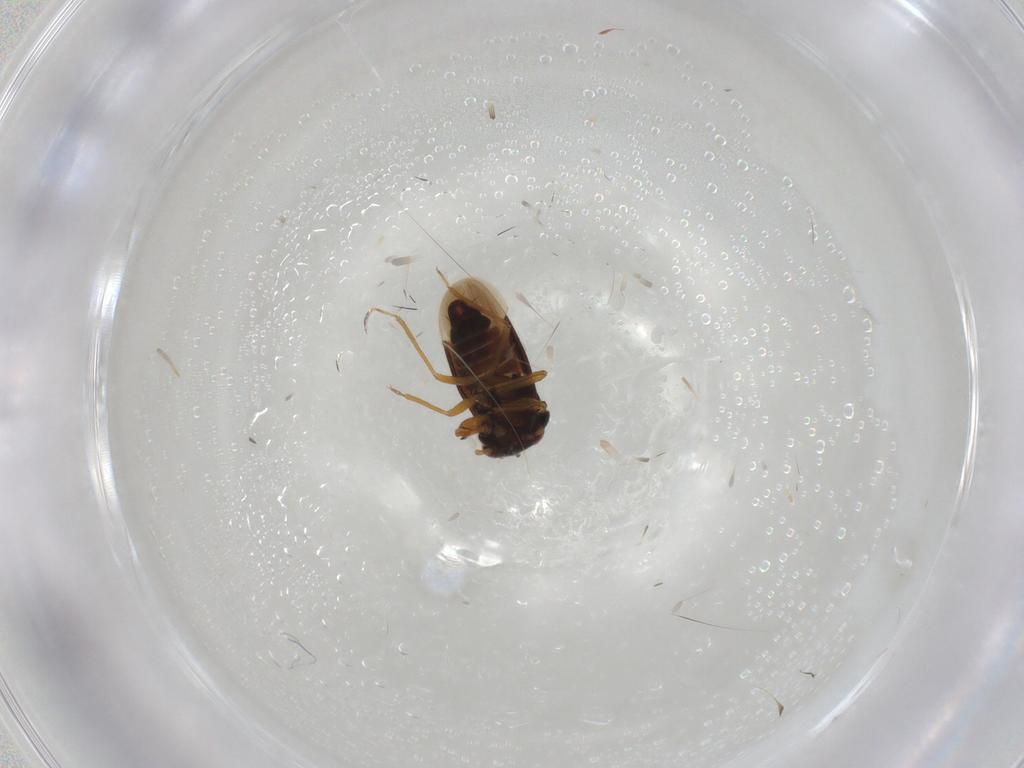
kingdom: Animalia
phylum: Arthropoda
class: Insecta
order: Hemiptera
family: Schizopteridae
